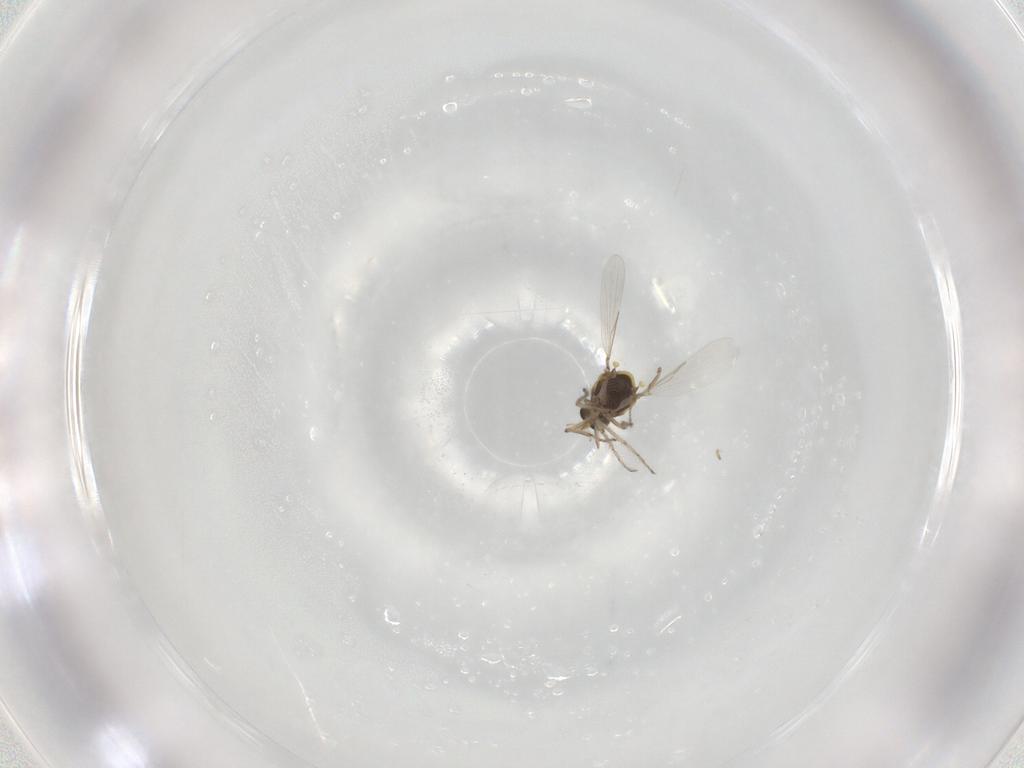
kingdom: Animalia
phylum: Arthropoda
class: Insecta
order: Diptera
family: Ceratopogonidae
